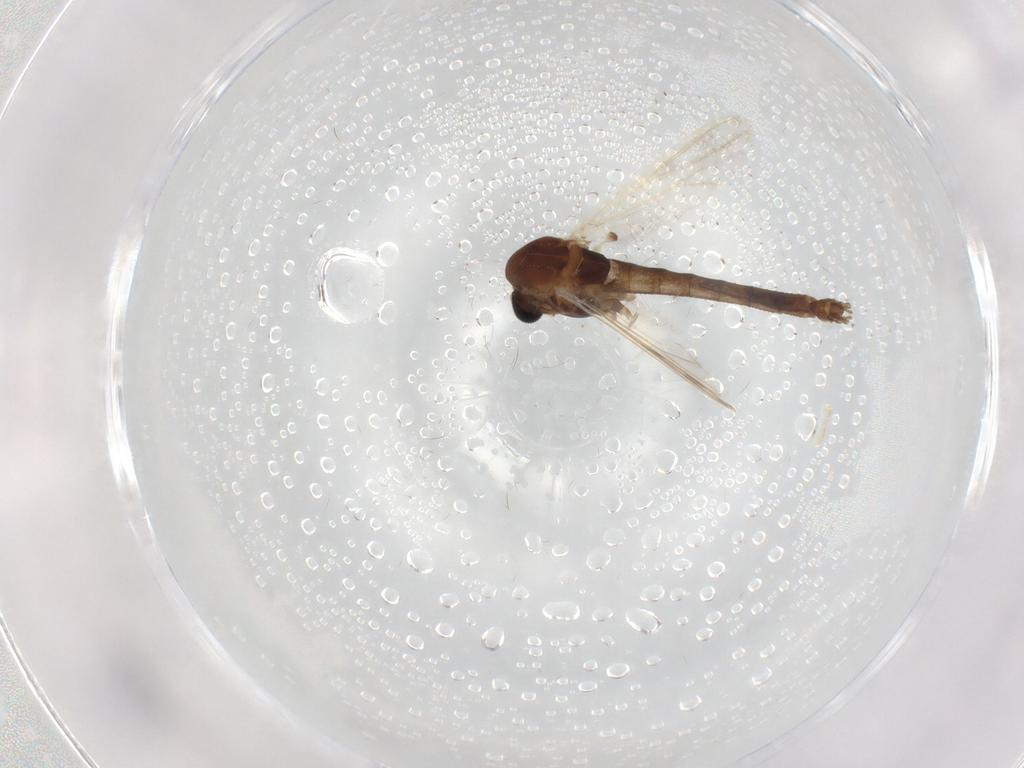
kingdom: Animalia
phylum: Arthropoda
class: Insecta
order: Diptera
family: Chironomidae
